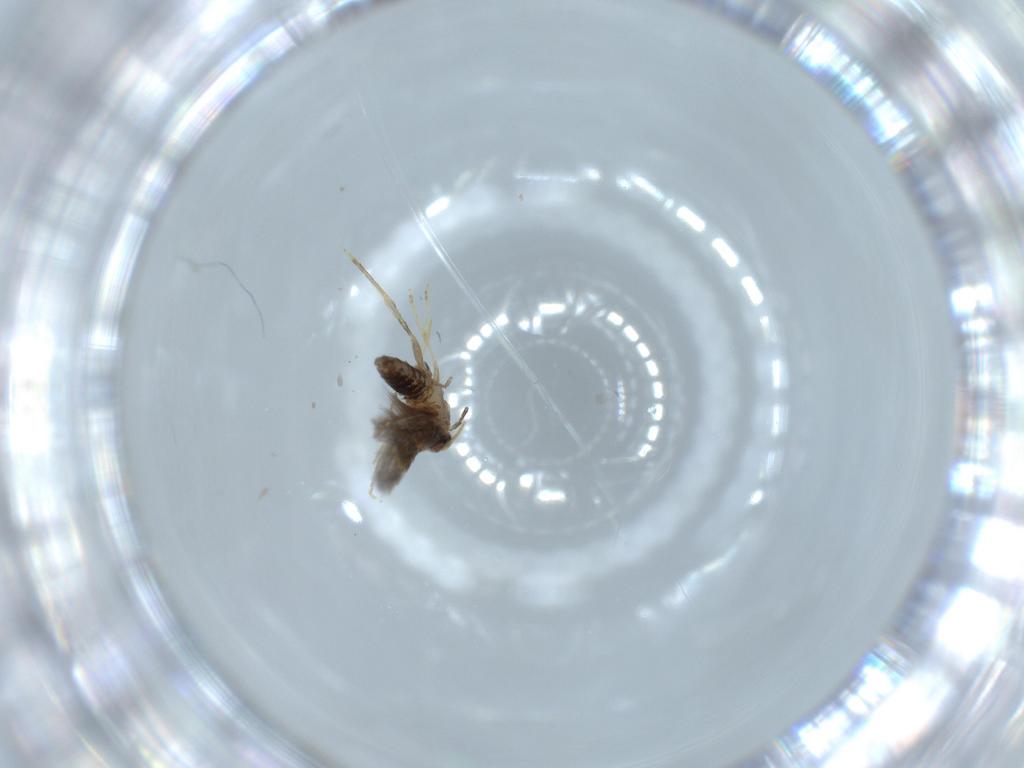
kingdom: Animalia
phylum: Arthropoda
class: Insecta
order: Lepidoptera
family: Nepticulidae
